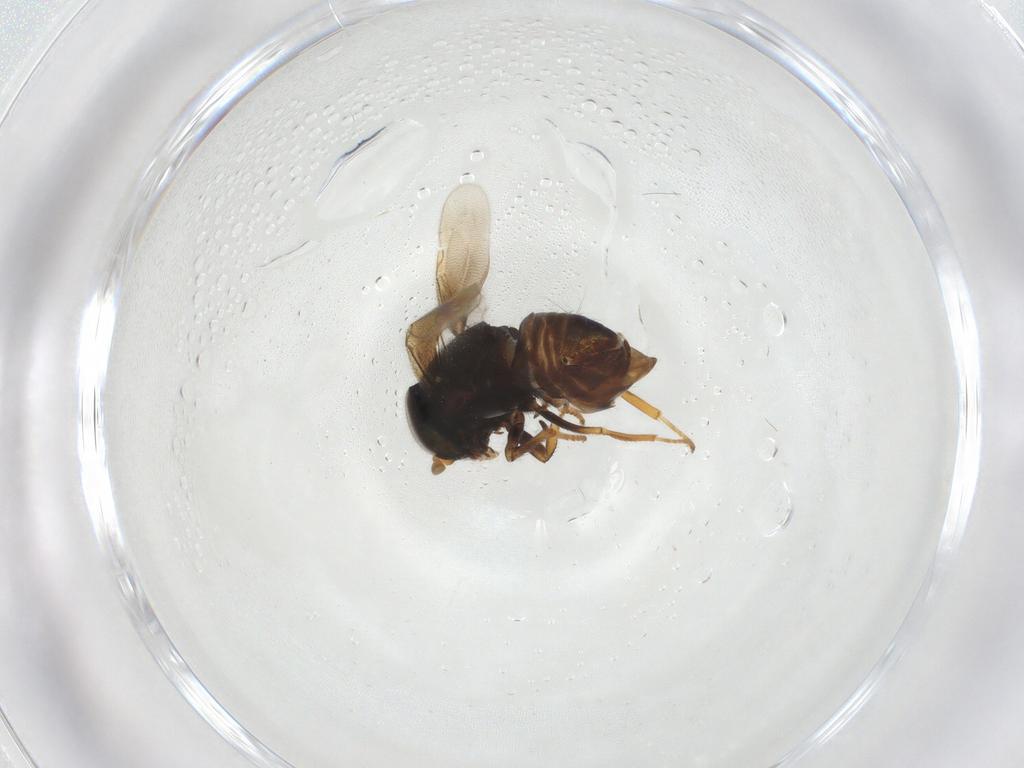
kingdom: Animalia
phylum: Arthropoda
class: Insecta
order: Hymenoptera
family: Encyrtidae
